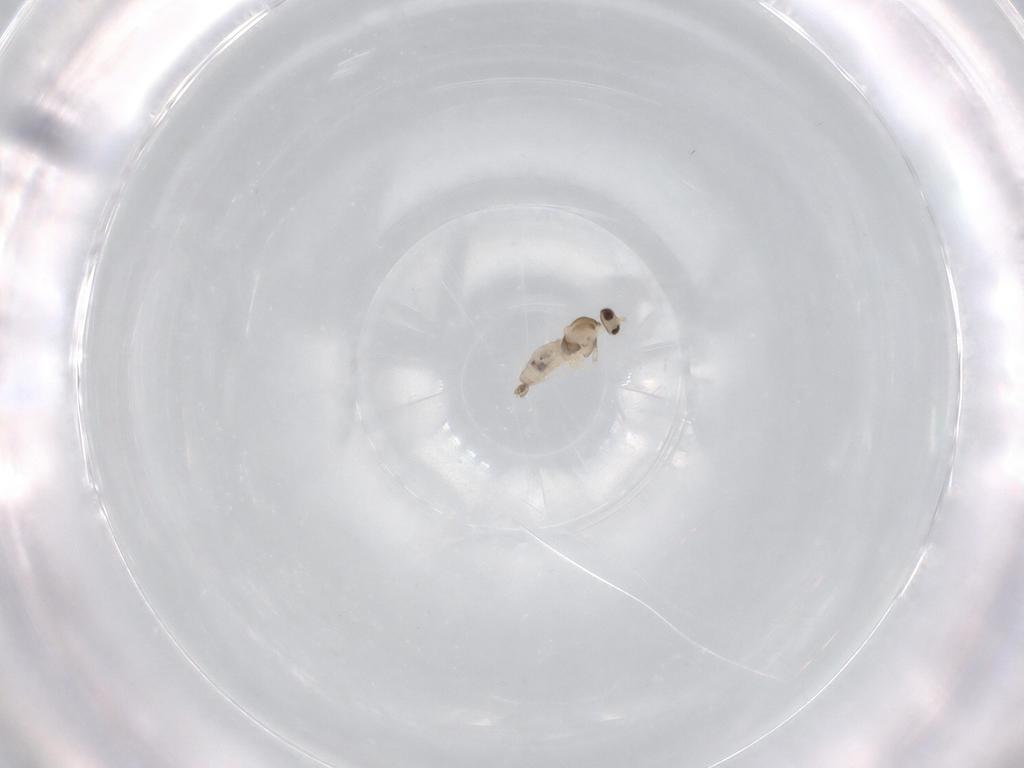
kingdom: Animalia
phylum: Arthropoda
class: Insecta
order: Diptera
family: Cecidomyiidae
